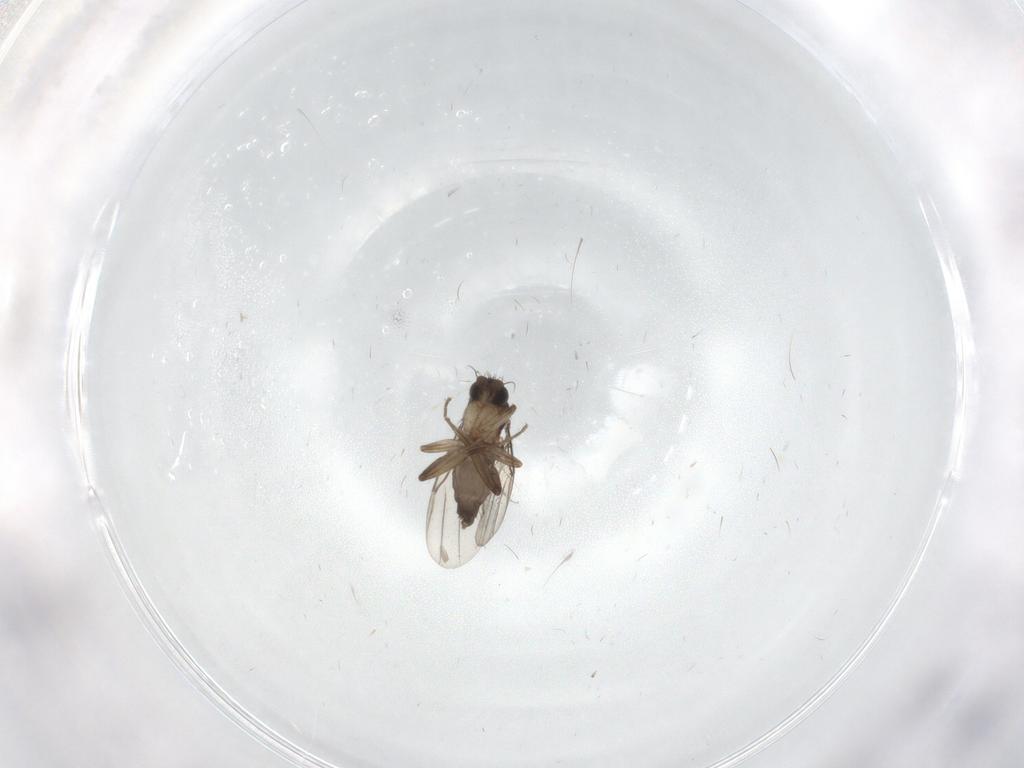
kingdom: Animalia
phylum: Arthropoda
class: Insecta
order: Diptera
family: Cecidomyiidae
